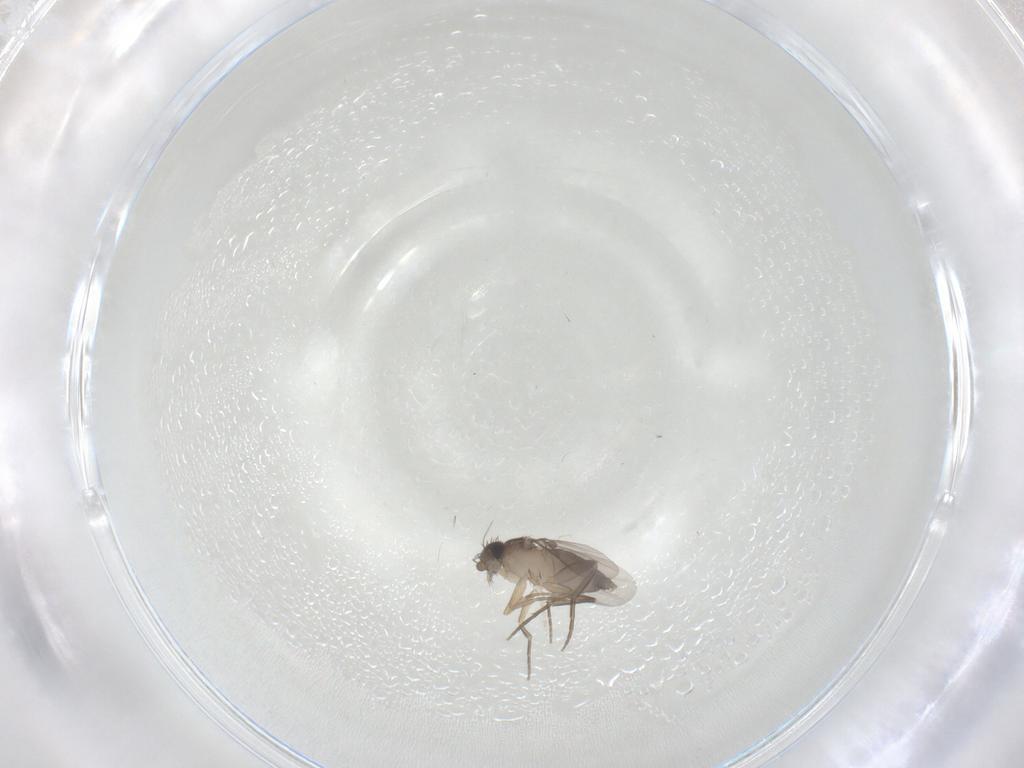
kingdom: Animalia
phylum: Arthropoda
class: Insecta
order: Diptera
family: Phoridae
